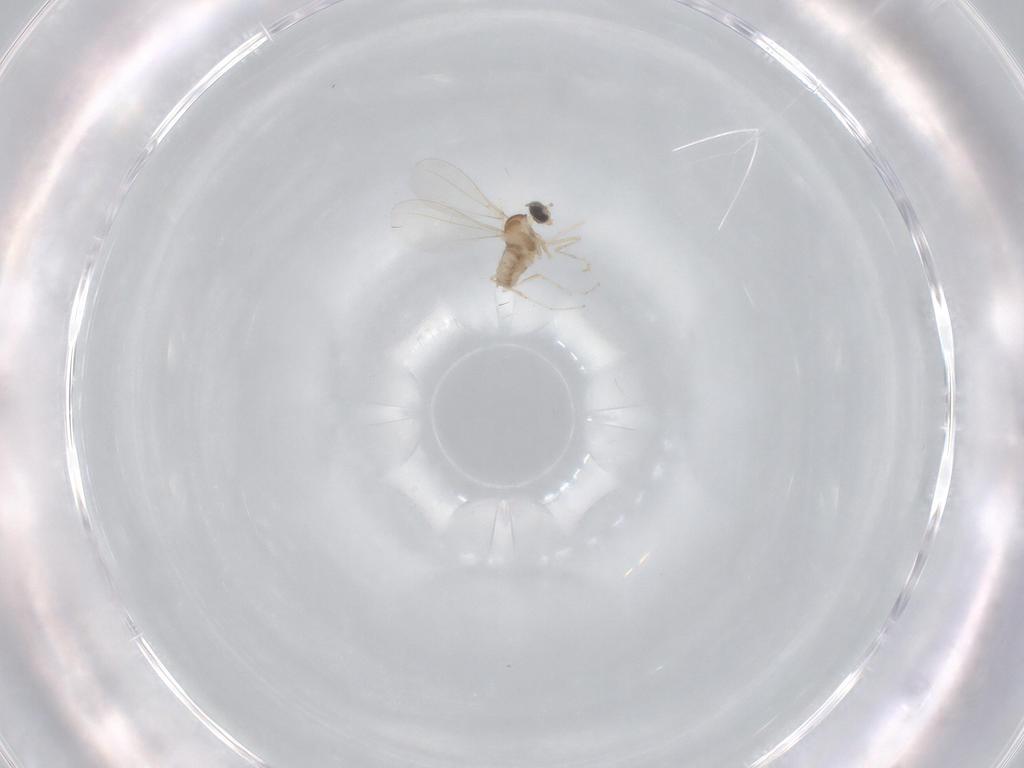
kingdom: Animalia
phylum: Arthropoda
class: Insecta
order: Diptera
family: Cecidomyiidae
